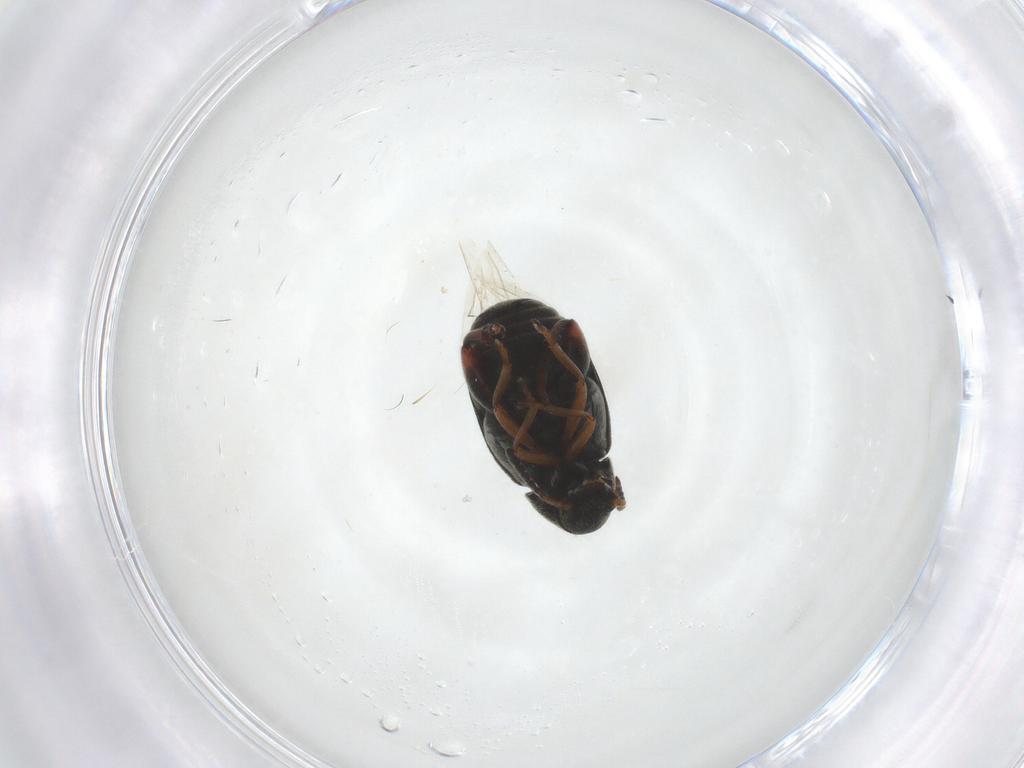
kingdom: Animalia
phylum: Arthropoda
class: Insecta
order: Coleoptera
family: Chrysomelidae
